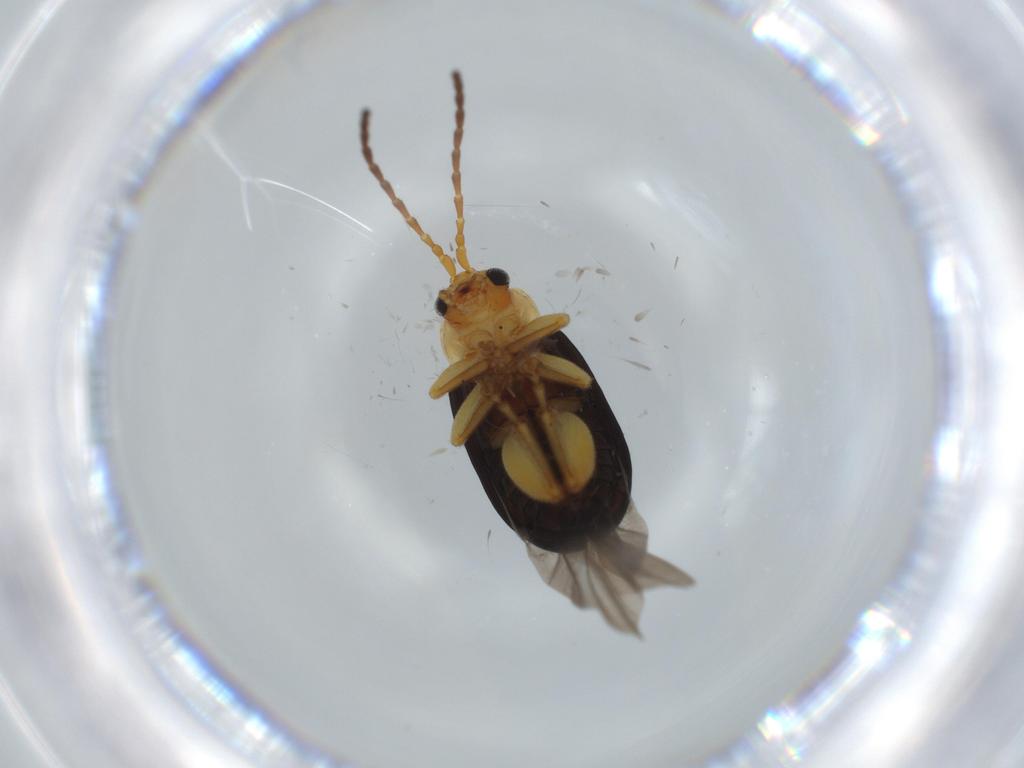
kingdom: Animalia
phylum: Arthropoda
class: Insecta
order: Coleoptera
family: Chrysomelidae
